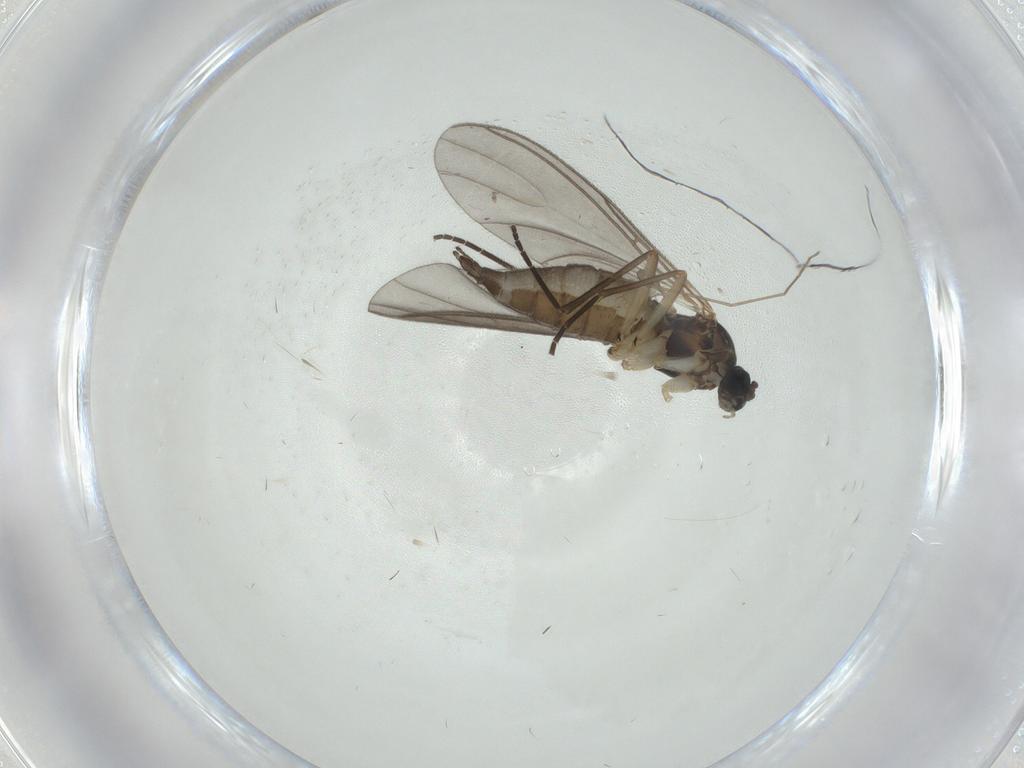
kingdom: Animalia
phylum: Arthropoda
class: Insecta
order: Diptera
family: Sciaridae
